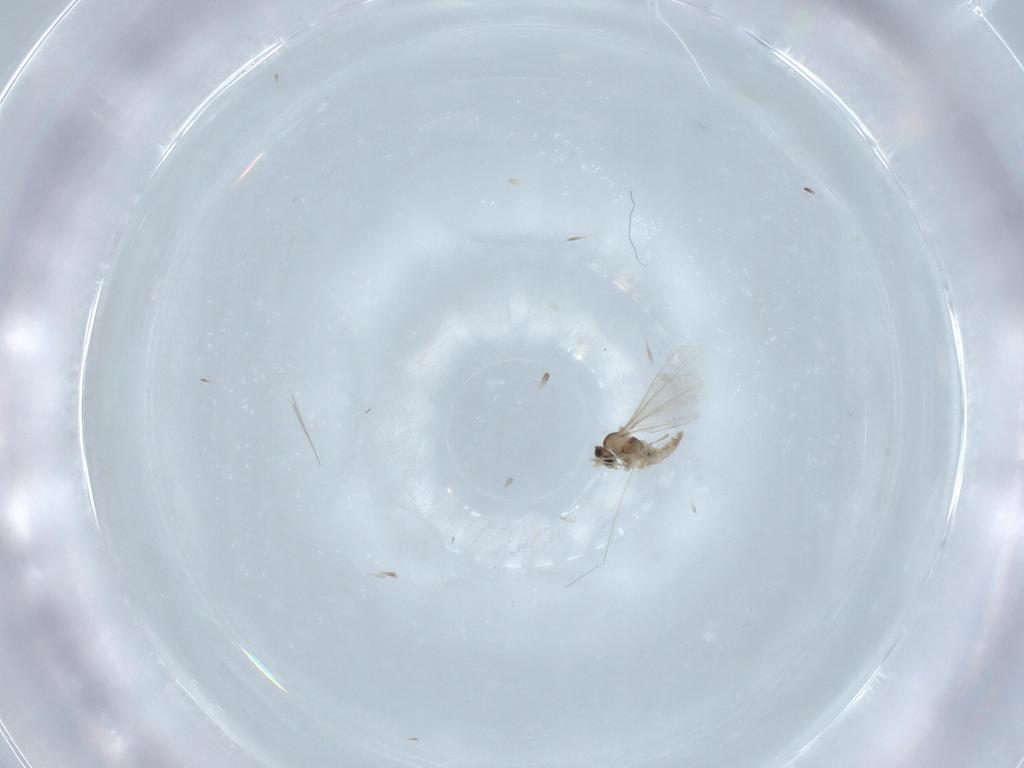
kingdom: Animalia
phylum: Arthropoda
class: Insecta
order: Diptera
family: Cecidomyiidae
